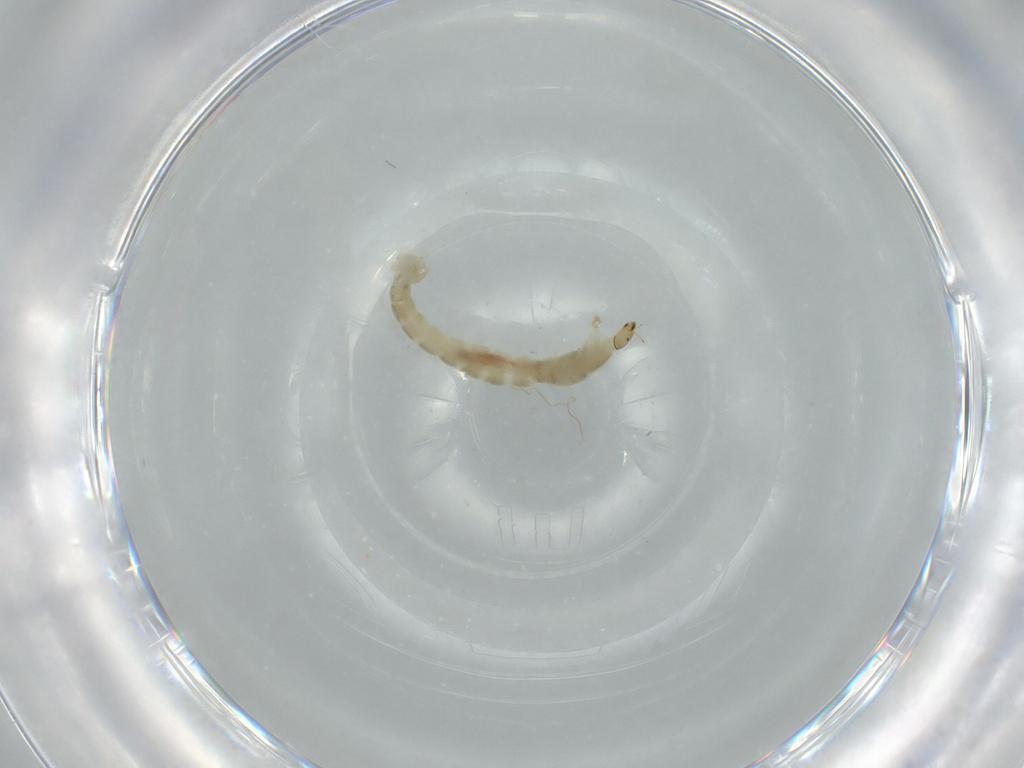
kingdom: Animalia
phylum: Arthropoda
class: Insecta
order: Diptera
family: Chironomidae
